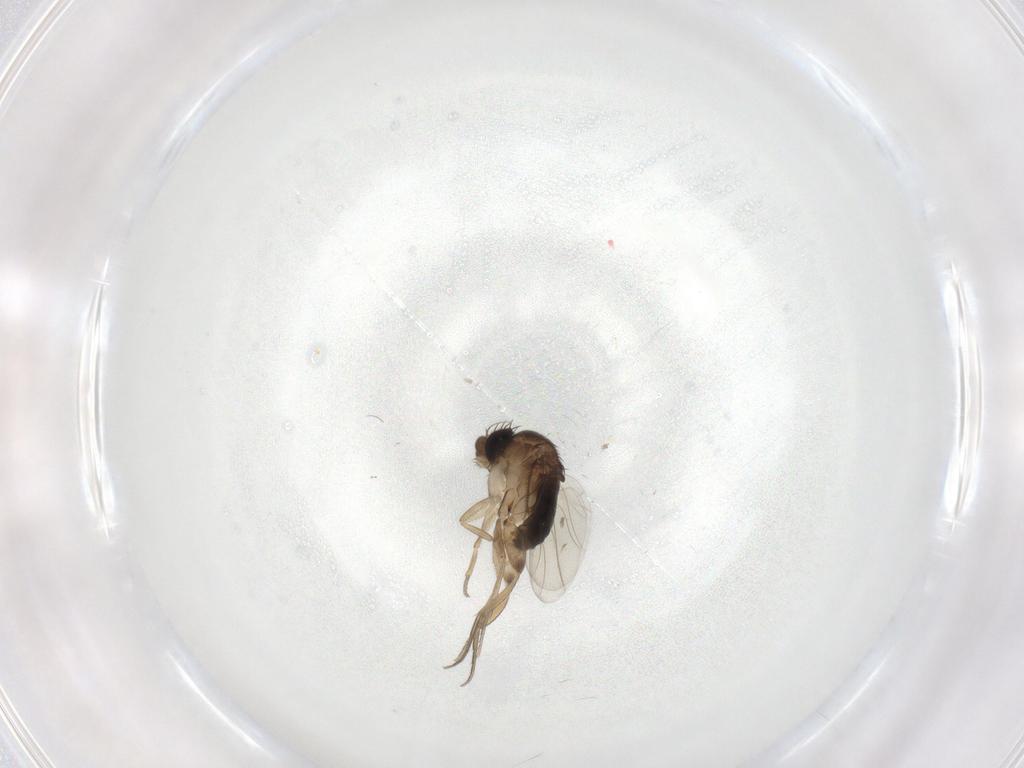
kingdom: Animalia
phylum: Arthropoda
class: Insecta
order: Diptera
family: Phoridae
